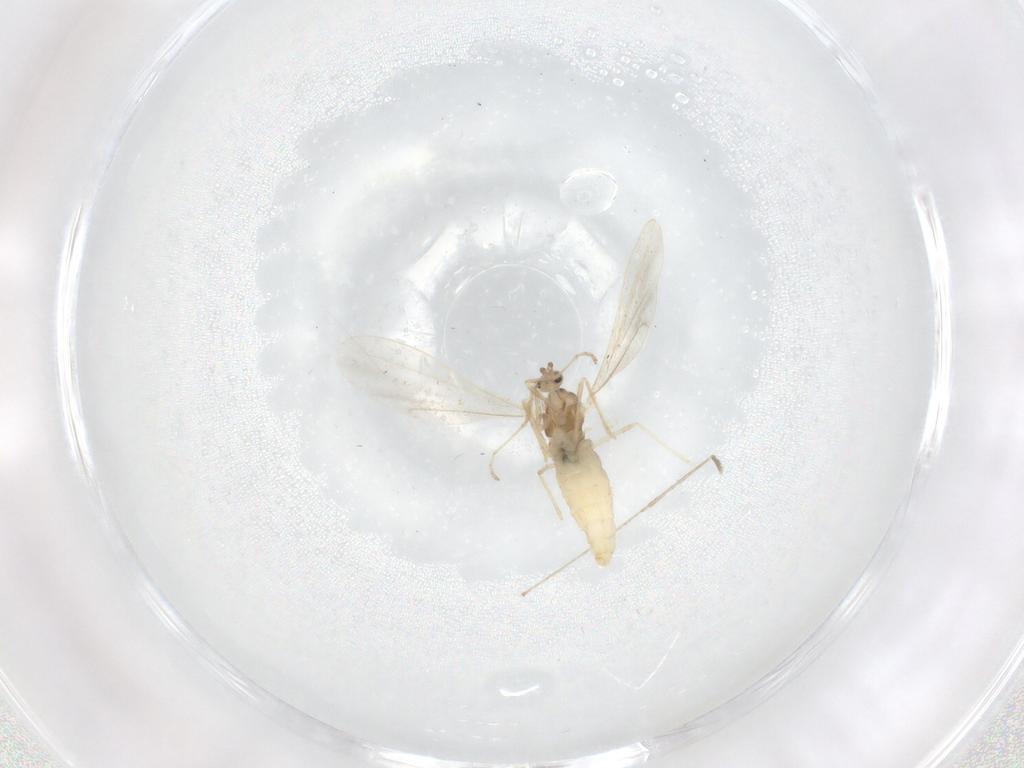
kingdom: Animalia
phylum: Arthropoda
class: Insecta
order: Diptera
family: Cecidomyiidae
